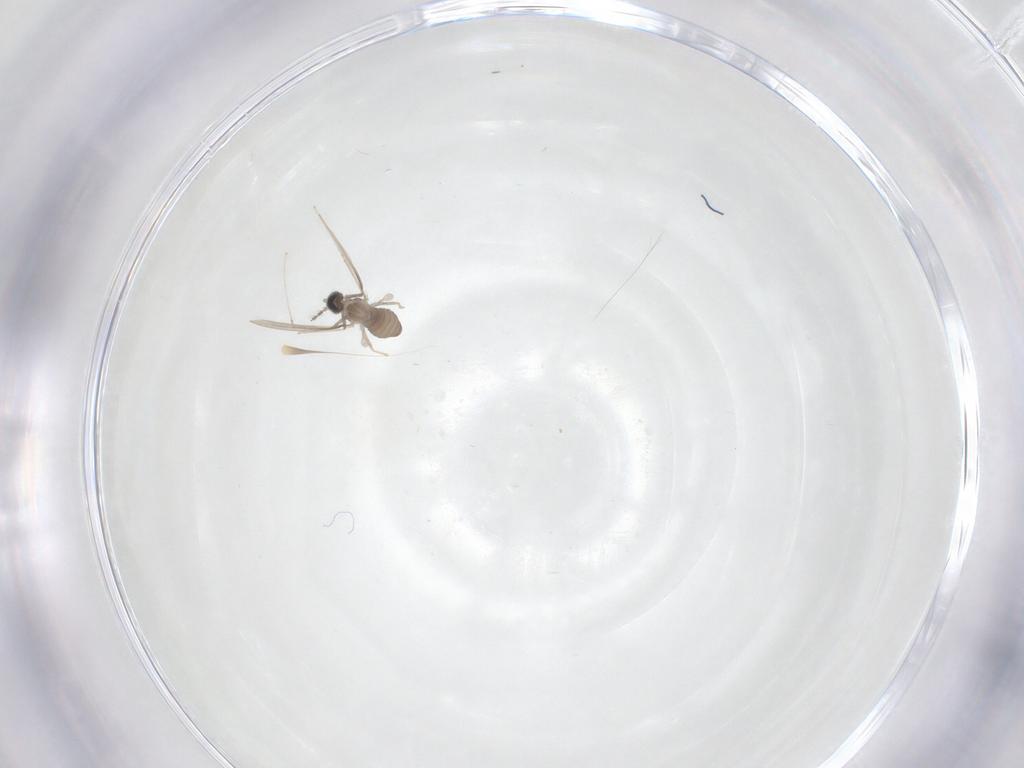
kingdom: Animalia
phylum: Arthropoda
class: Insecta
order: Diptera
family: Cecidomyiidae
